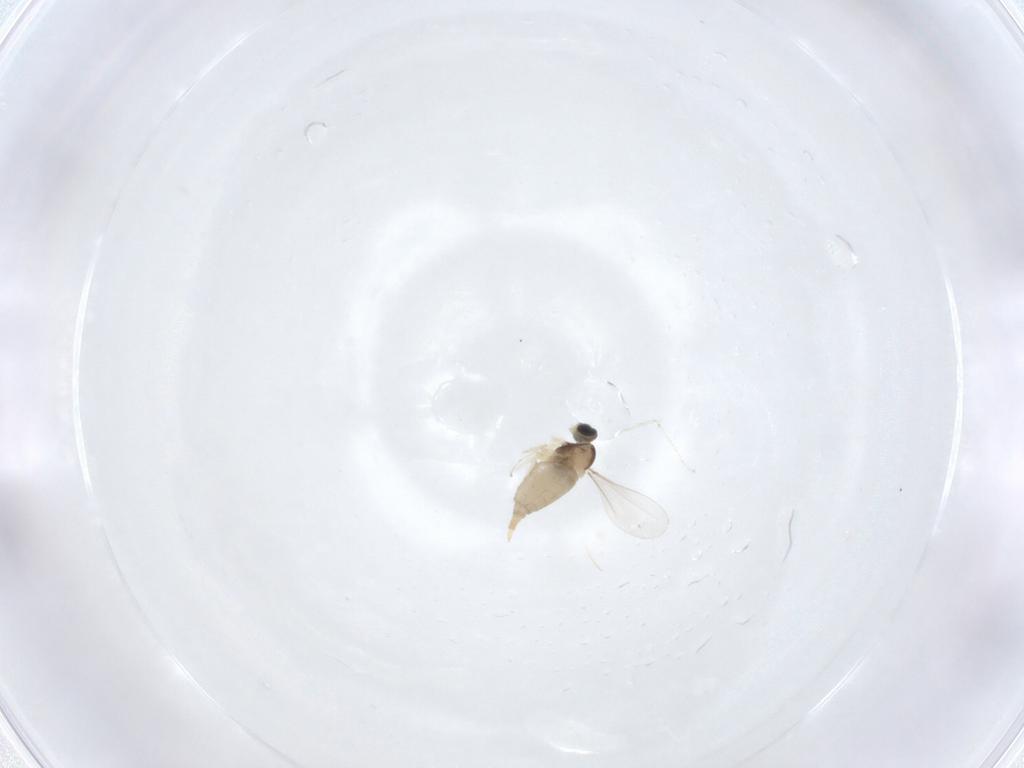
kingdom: Animalia
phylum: Arthropoda
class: Insecta
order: Diptera
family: Cecidomyiidae
